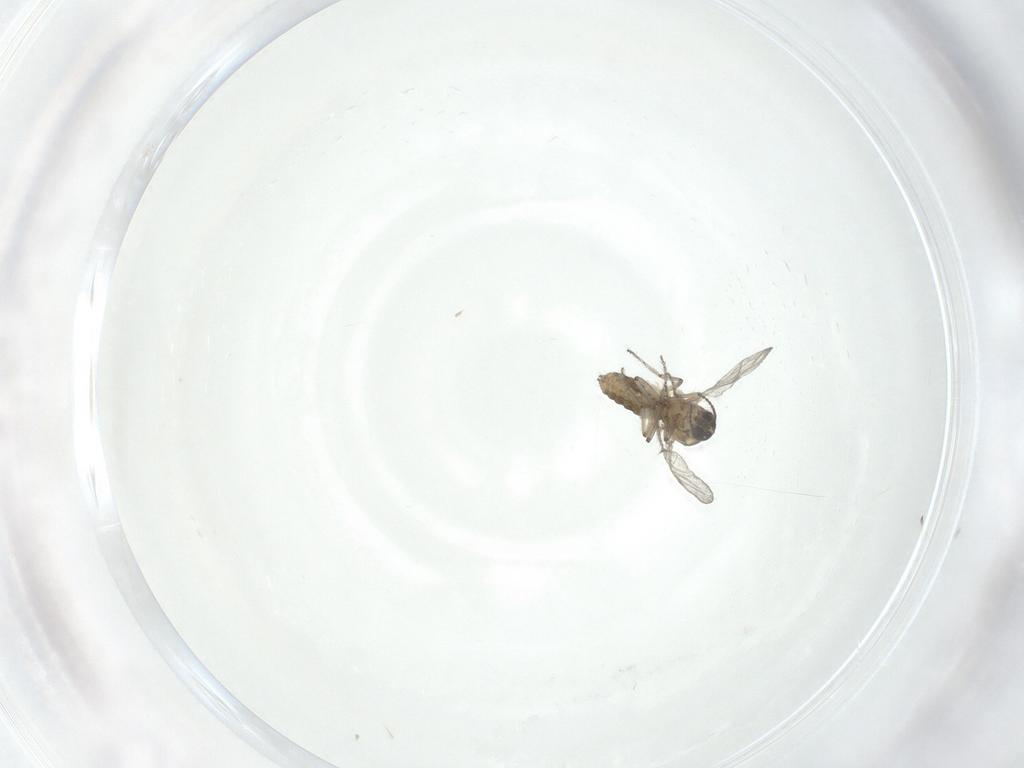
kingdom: Animalia
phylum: Arthropoda
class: Insecta
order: Diptera
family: Ceratopogonidae
